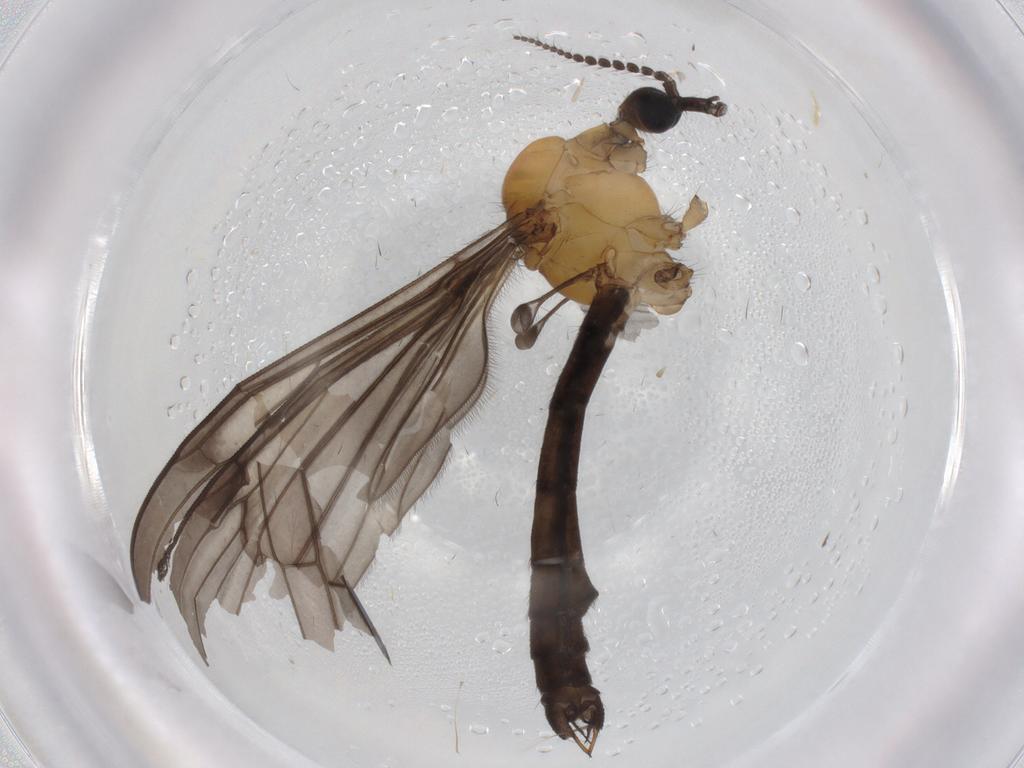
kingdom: Animalia
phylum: Arthropoda
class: Insecta
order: Diptera
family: Limoniidae
